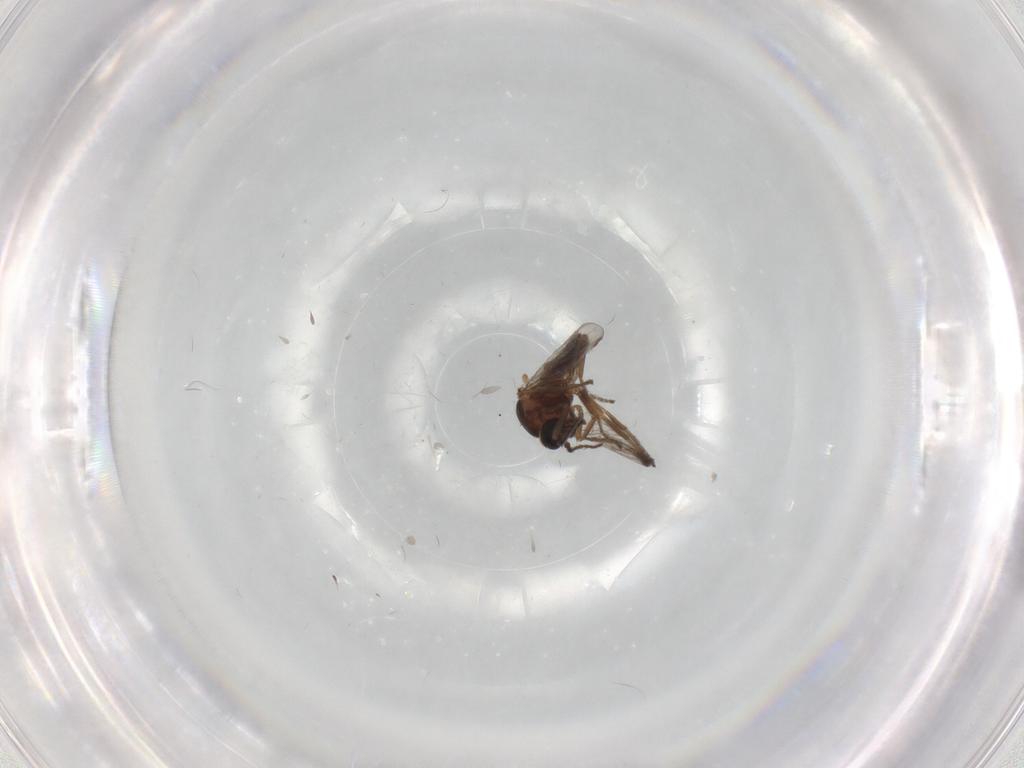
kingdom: Animalia
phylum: Arthropoda
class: Insecta
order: Diptera
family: Ceratopogonidae
